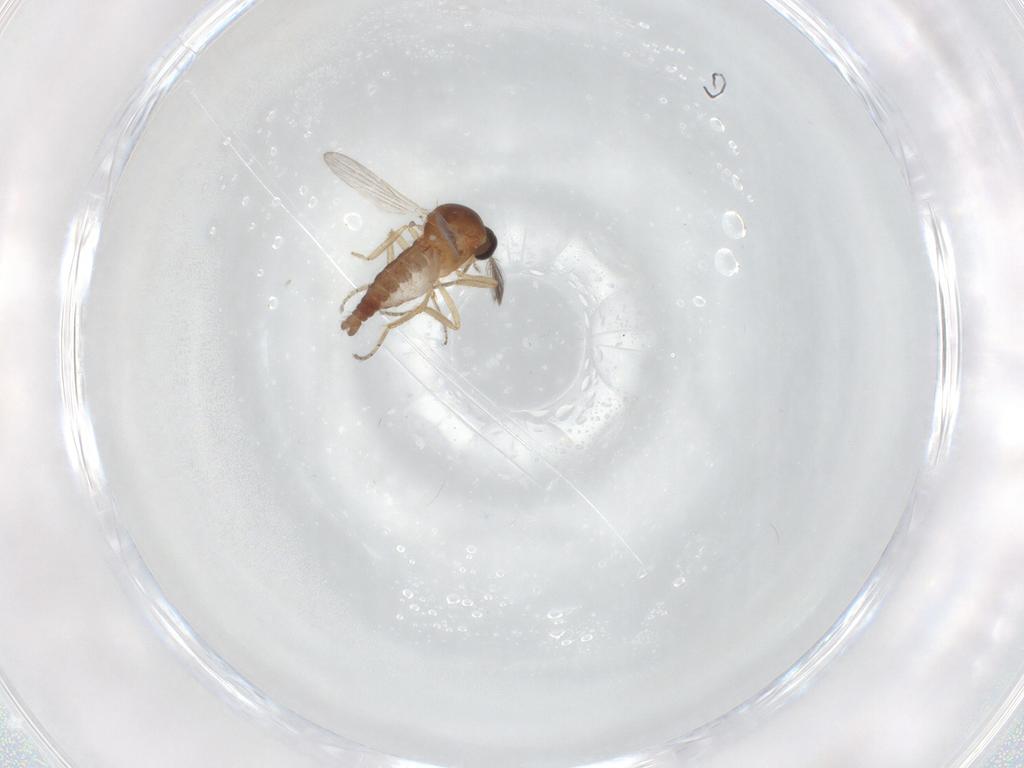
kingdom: Animalia
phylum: Arthropoda
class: Insecta
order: Diptera
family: Ceratopogonidae
